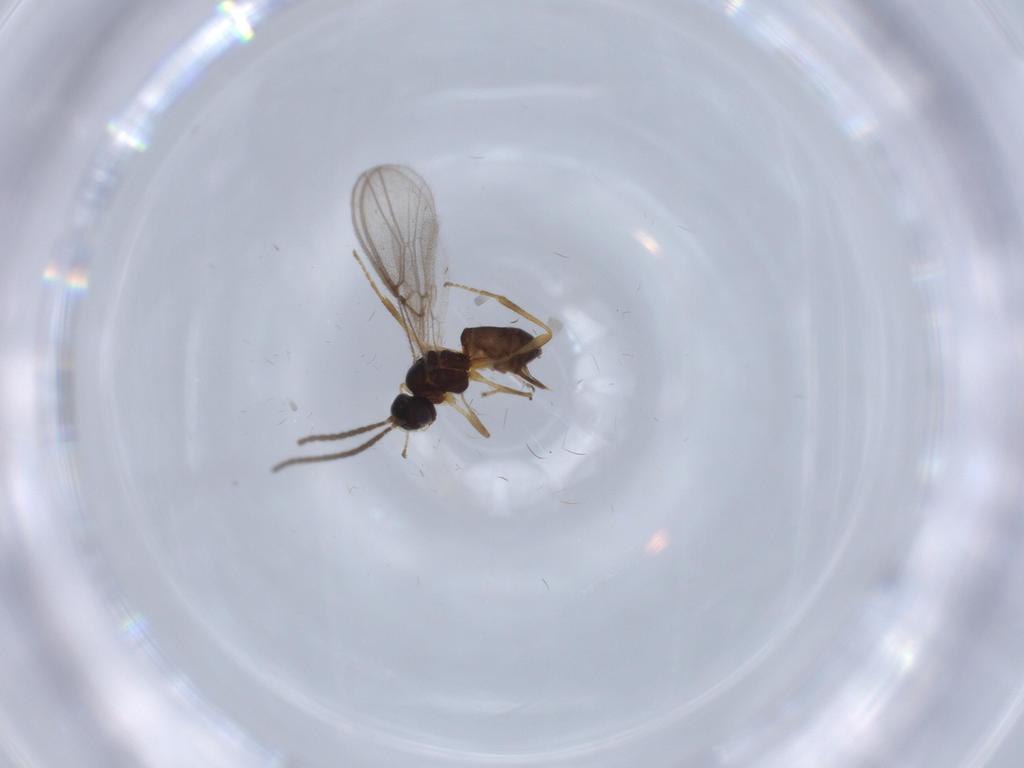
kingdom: Animalia
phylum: Arthropoda
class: Insecta
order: Hymenoptera
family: Braconidae
